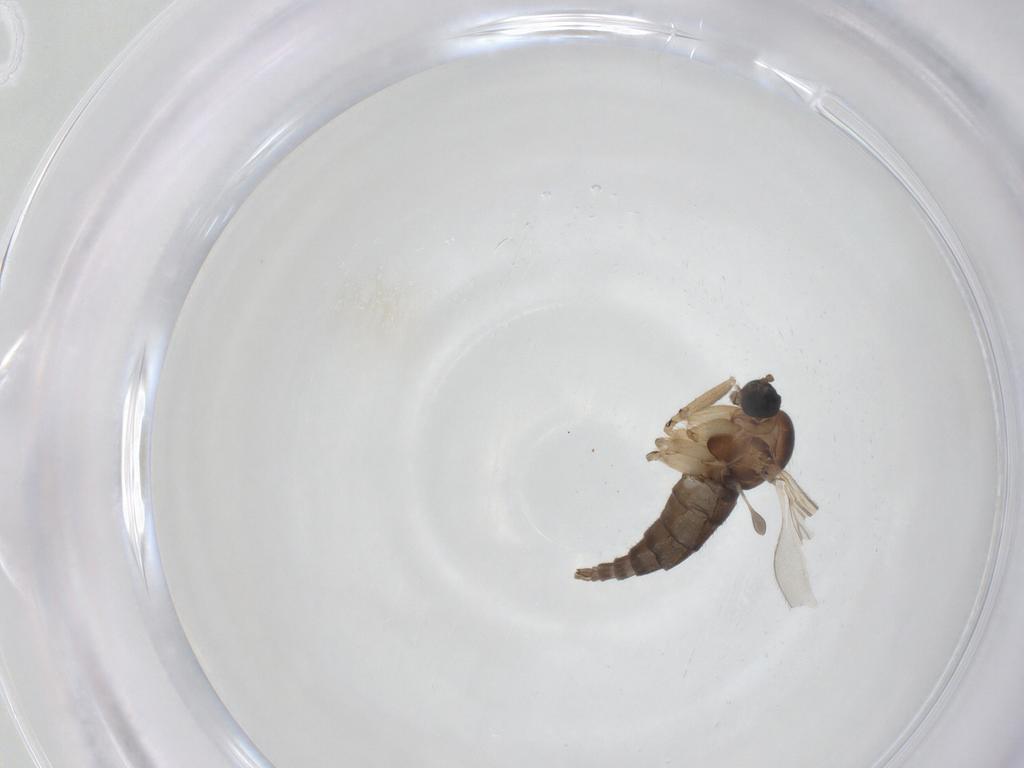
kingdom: Animalia
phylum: Arthropoda
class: Insecta
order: Diptera
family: Sciaridae
